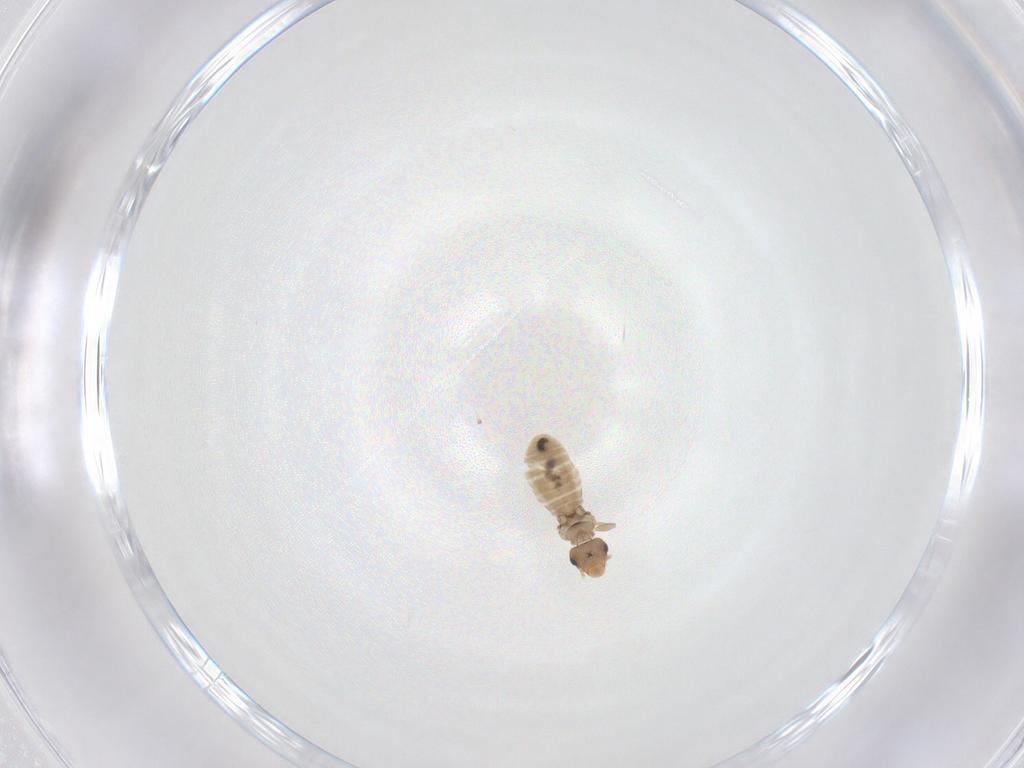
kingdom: Animalia
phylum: Arthropoda
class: Insecta
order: Psocodea
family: Liposcelididae
